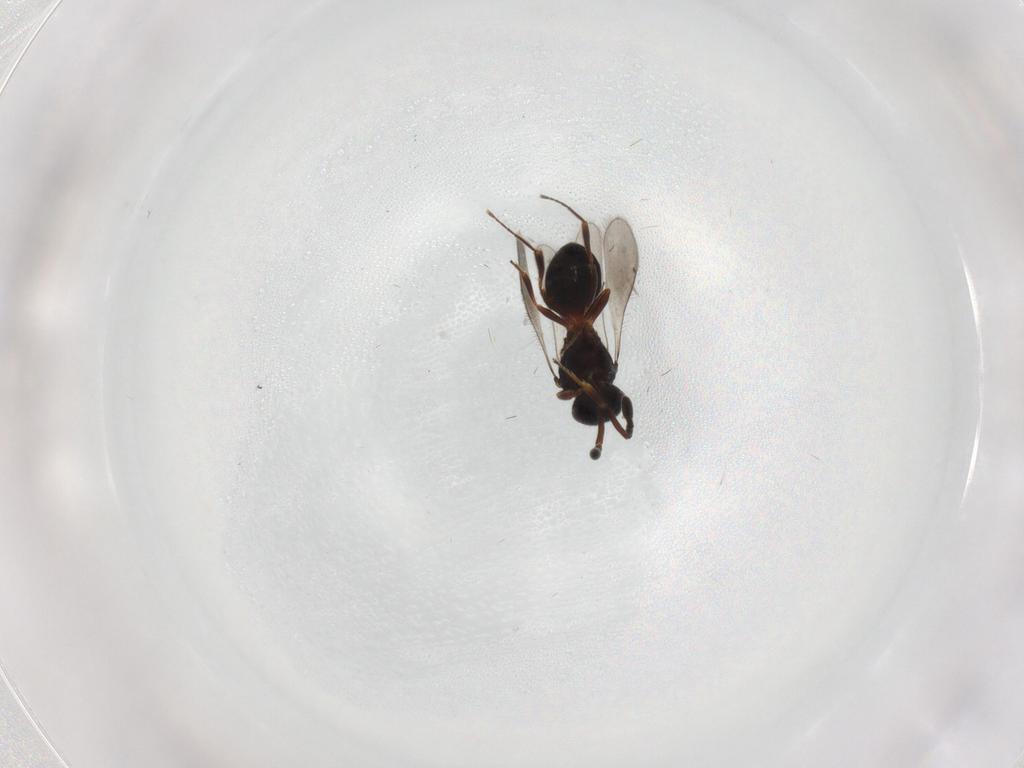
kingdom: Animalia
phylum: Arthropoda
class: Insecta
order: Hymenoptera
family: Scelionidae
